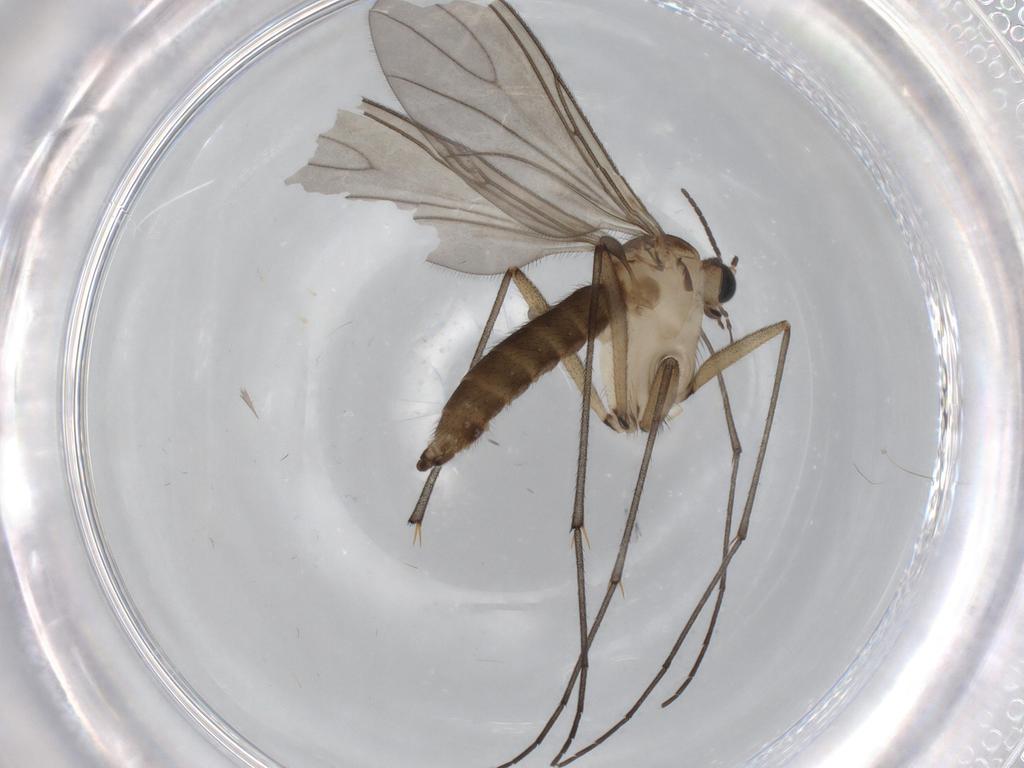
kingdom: Animalia
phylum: Arthropoda
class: Insecta
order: Diptera
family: Sciaridae
